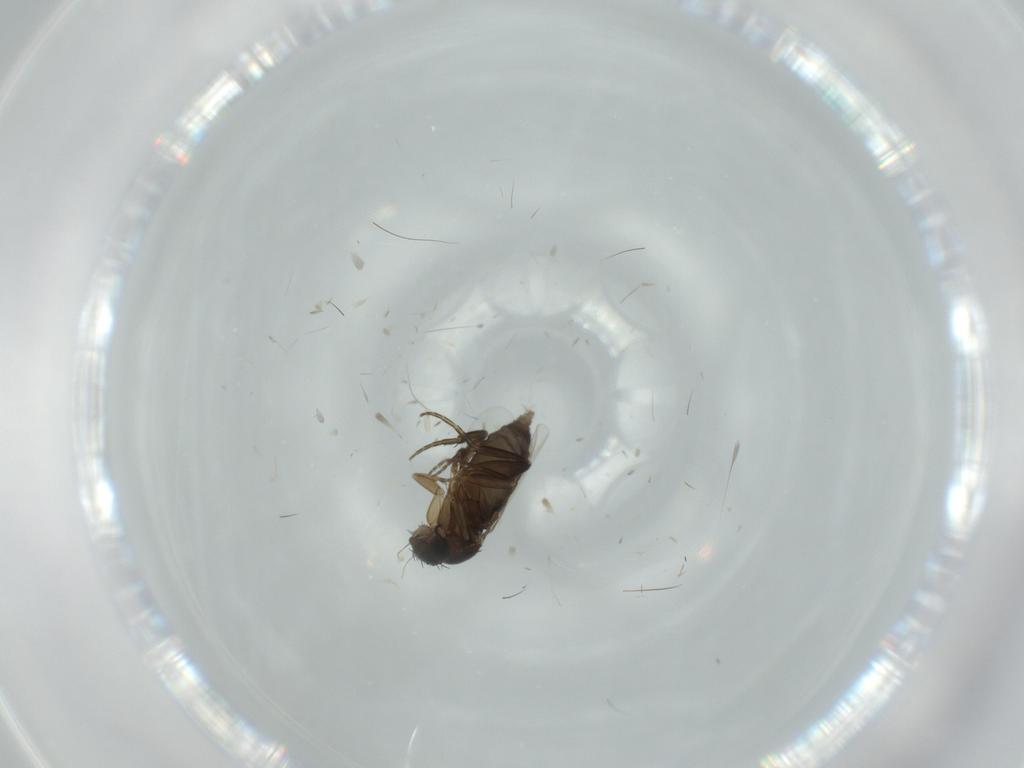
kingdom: Animalia
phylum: Arthropoda
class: Insecta
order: Diptera
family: Phoridae
